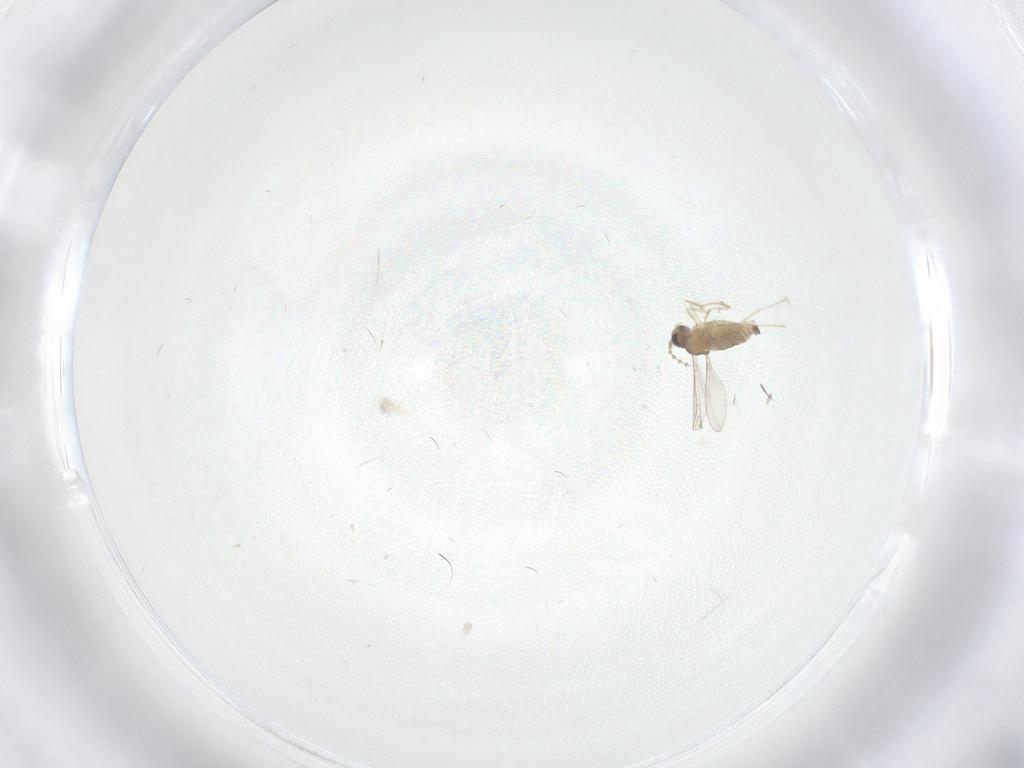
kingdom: Animalia
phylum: Arthropoda
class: Insecta
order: Diptera
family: Cecidomyiidae
